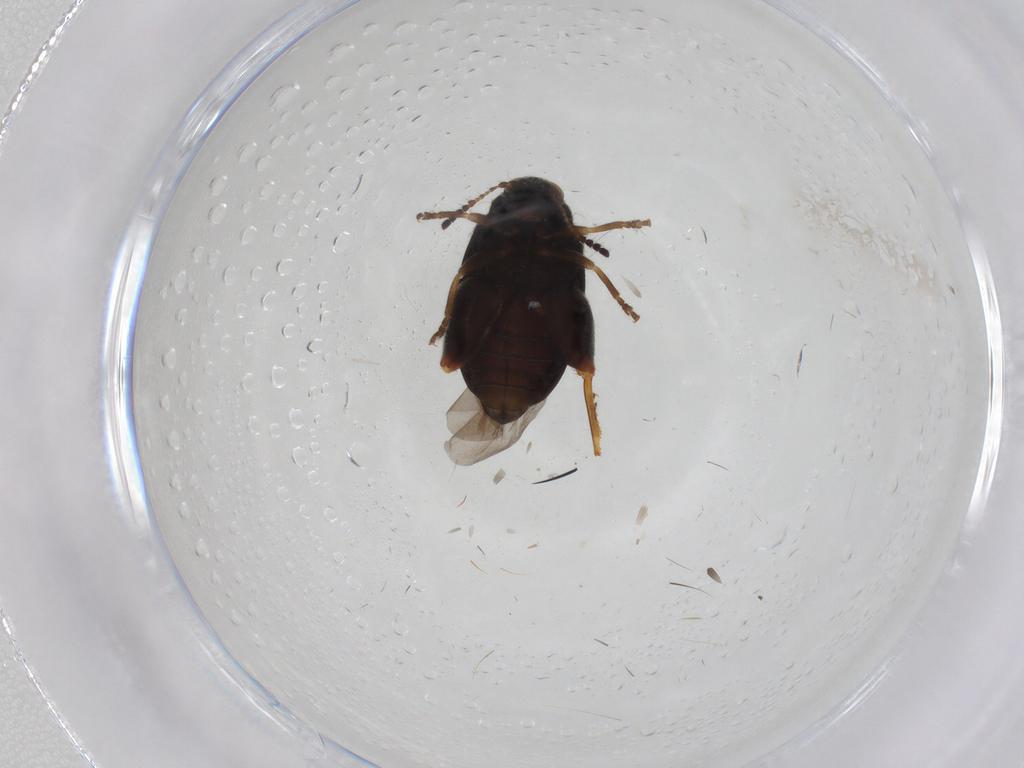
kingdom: Animalia
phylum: Arthropoda
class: Insecta
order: Coleoptera
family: Chrysomelidae
